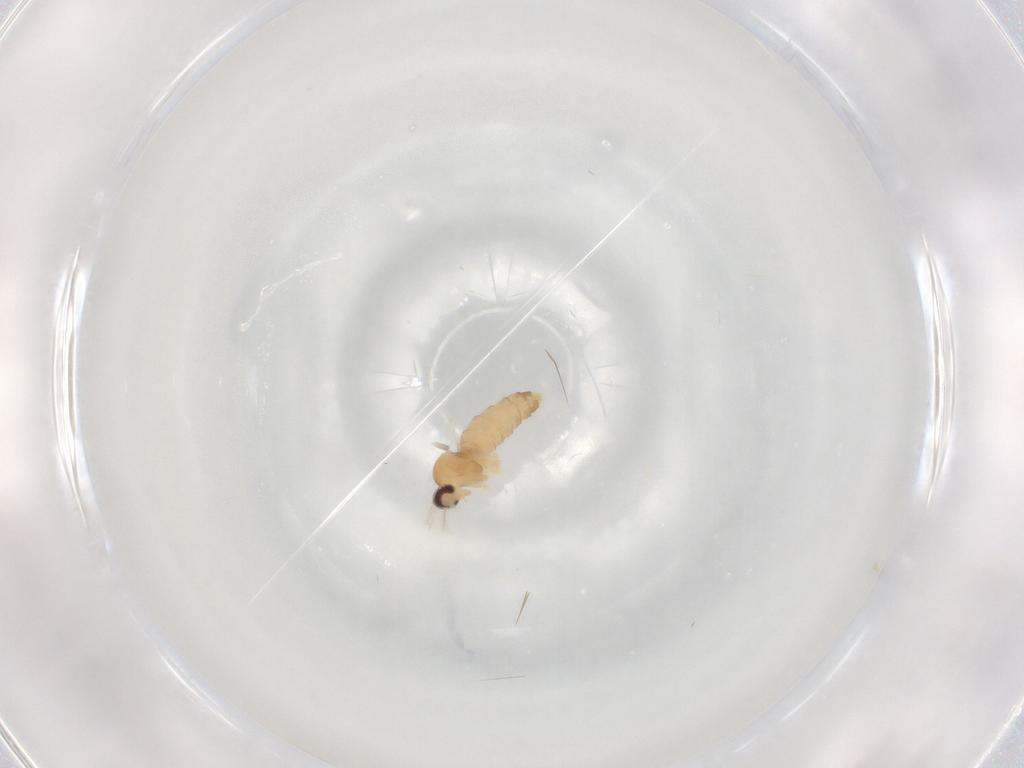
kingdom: Animalia
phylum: Arthropoda
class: Insecta
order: Diptera
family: Cecidomyiidae
